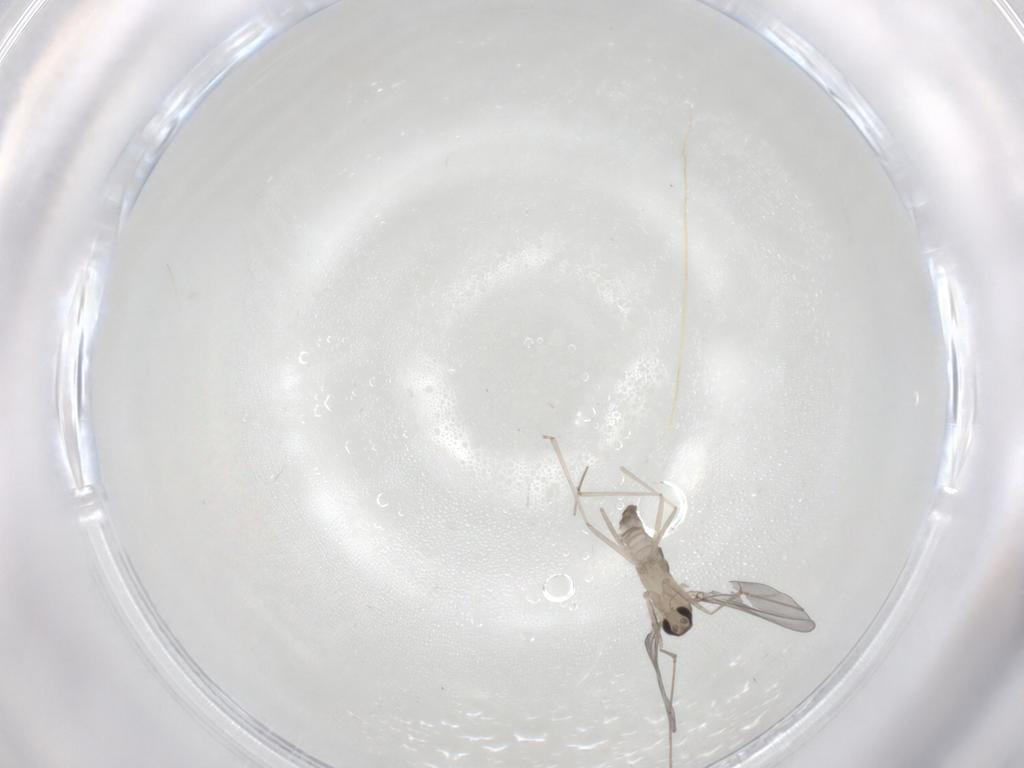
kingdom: Animalia
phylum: Arthropoda
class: Insecta
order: Diptera
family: Cecidomyiidae
